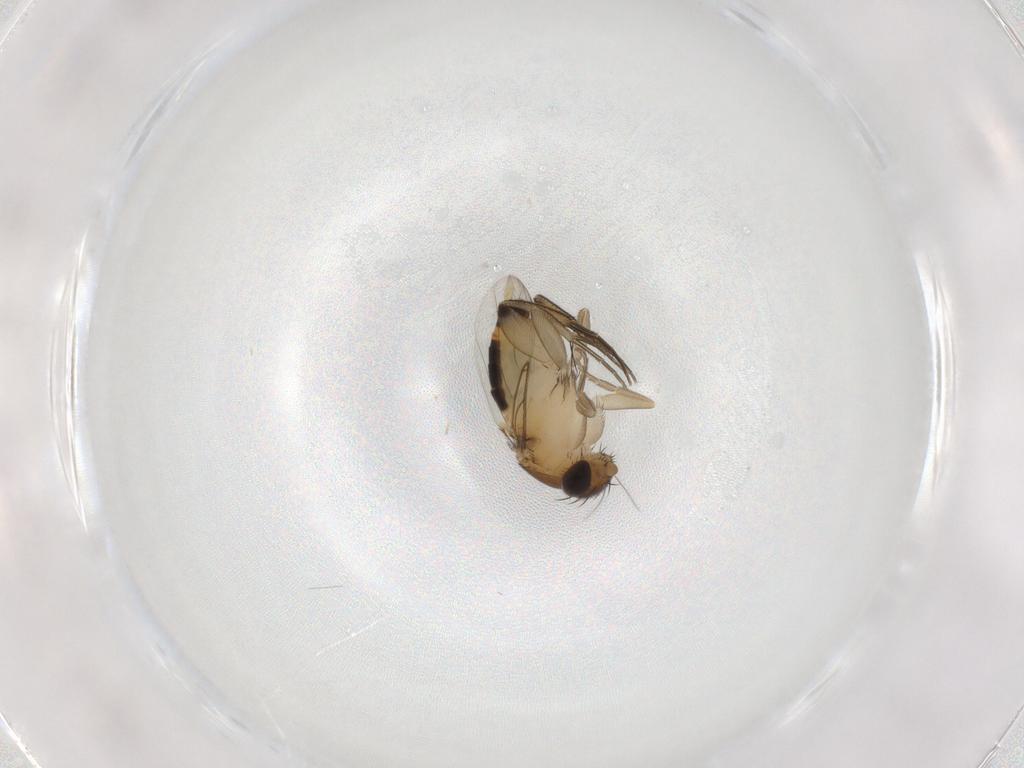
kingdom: Animalia
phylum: Arthropoda
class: Insecta
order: Diptera
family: Phoridae
